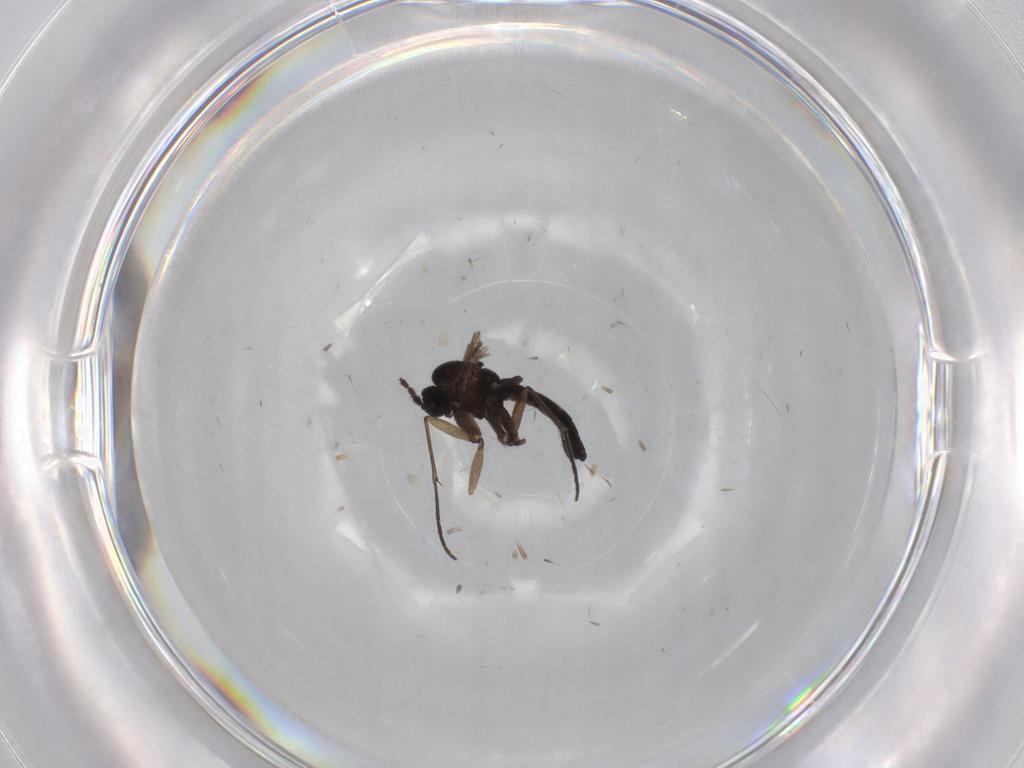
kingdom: Animalia
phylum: Arthropoda
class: Insecta
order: Diptera
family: Sciaridae
